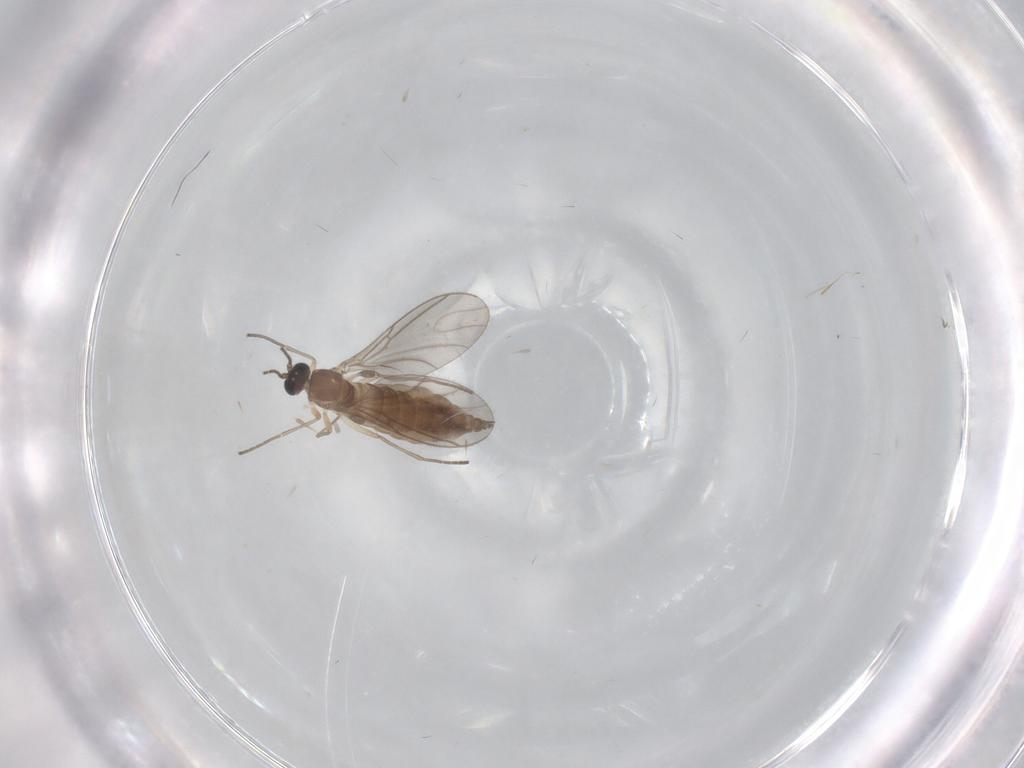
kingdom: Animalia
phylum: Arthropoda
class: Insecta
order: Diptera
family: Sciaridae
